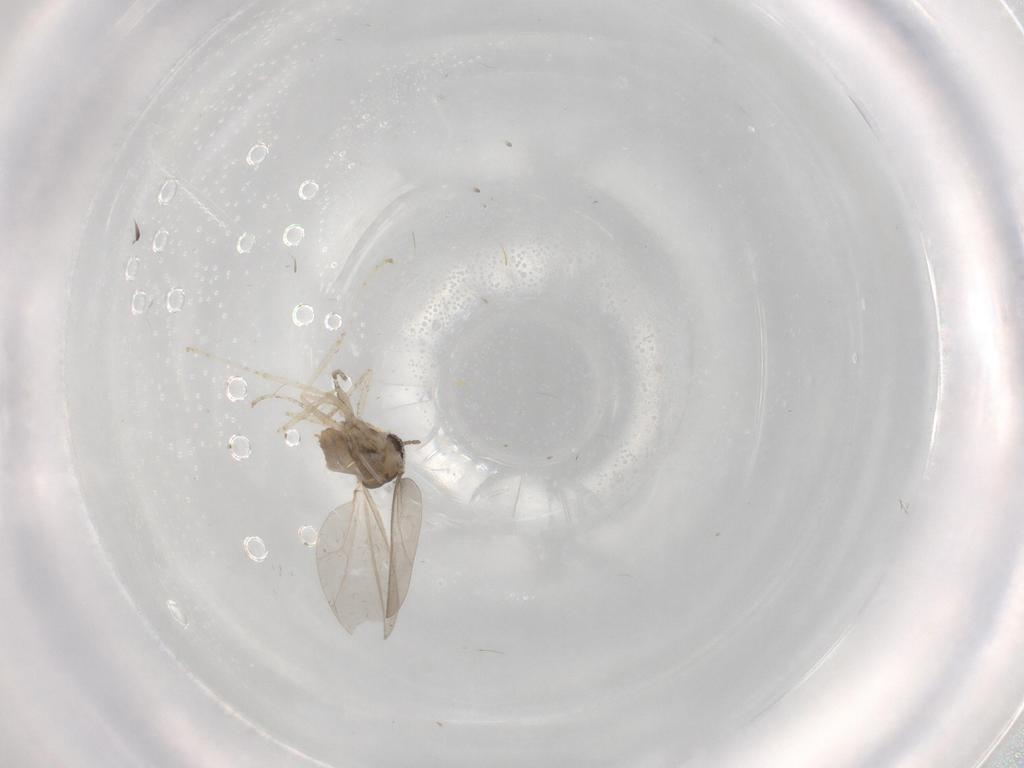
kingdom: Animalia
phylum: Arthropoda
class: Insecta
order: Diptera
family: Cecidomyiidae
